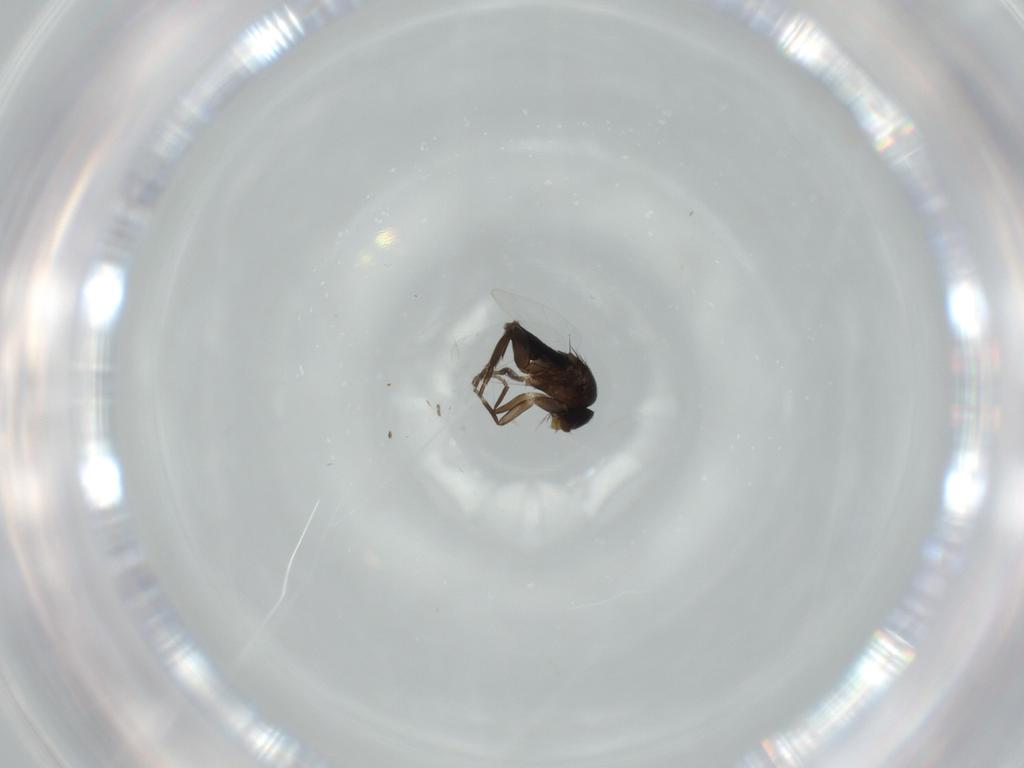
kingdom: Animalia
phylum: Arthropoda
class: Insecta
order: Diptera
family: Phoridae
